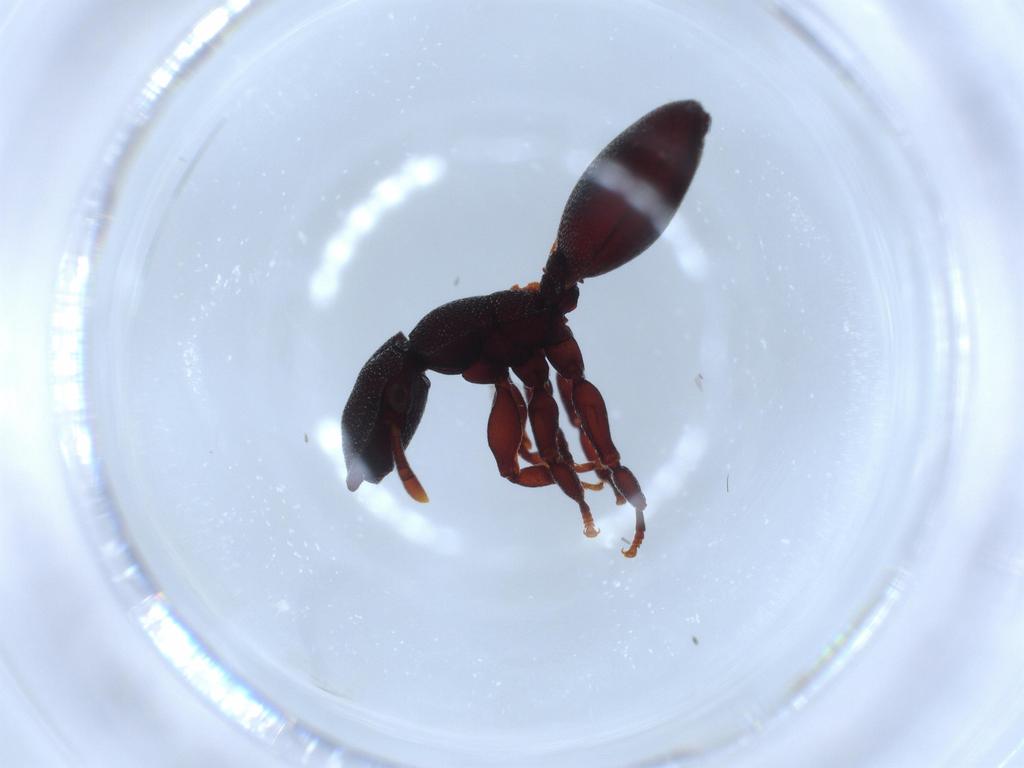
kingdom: Animalia
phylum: Arthropoda
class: Insecta
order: Hymenoptera
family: Formicidae
